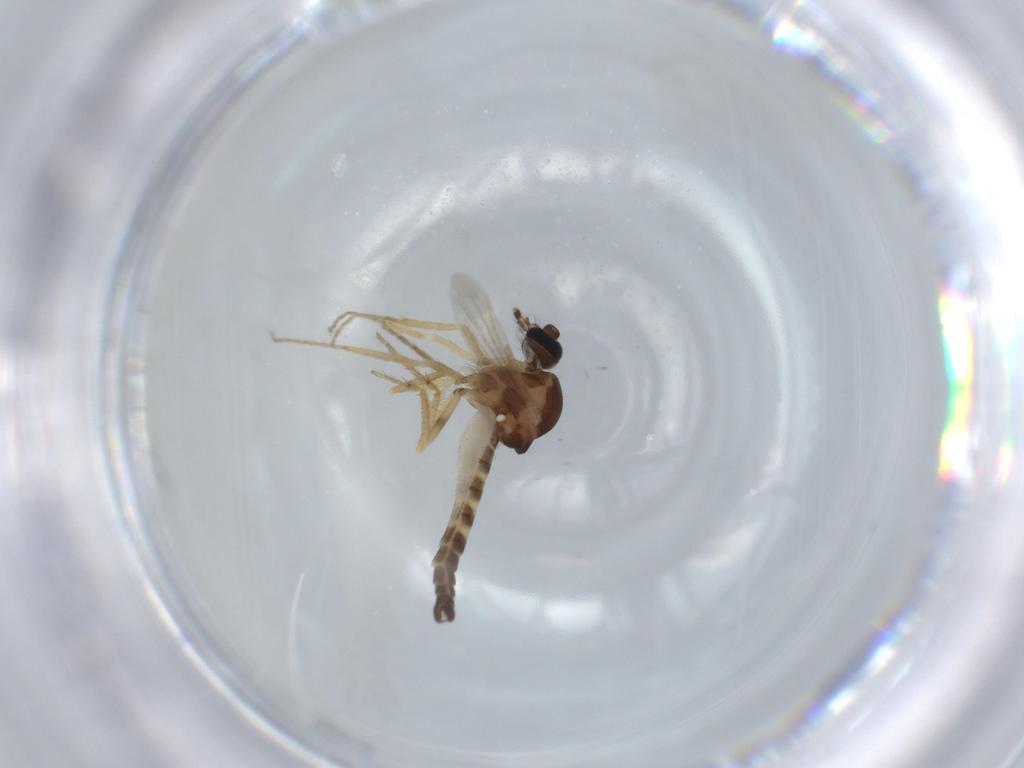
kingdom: Animalia
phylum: Arthropoda
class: Insecta
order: Diptera
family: Ceratopogonidae
